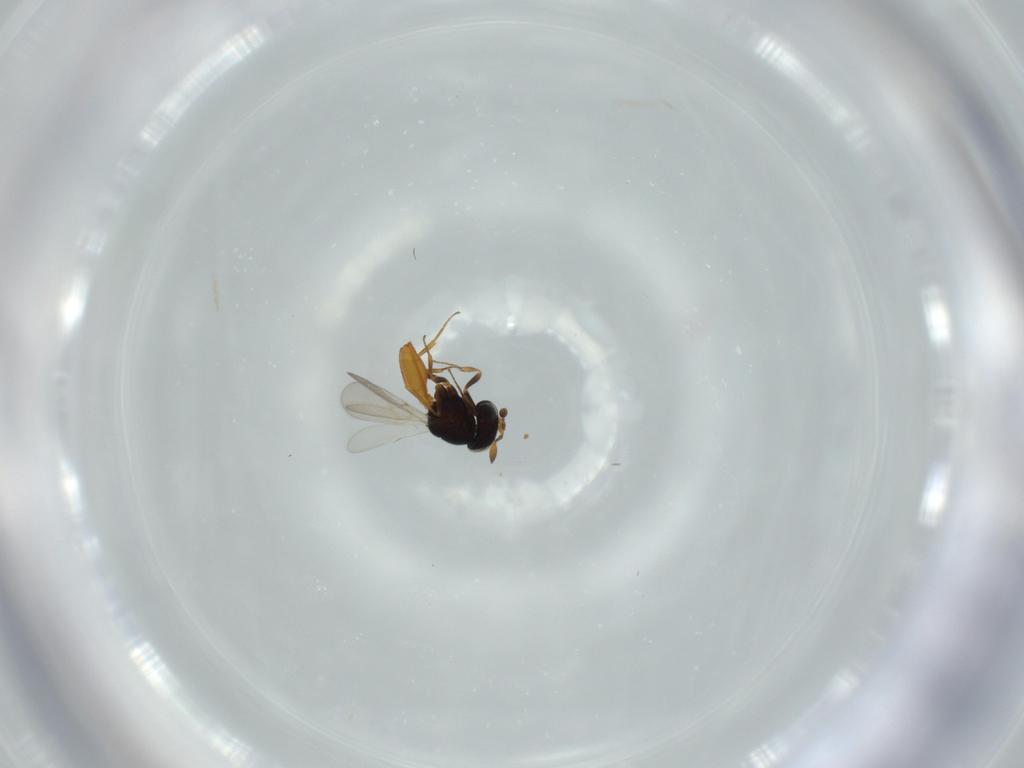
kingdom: Animalia
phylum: Arthropoda
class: Insecta
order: Hymenoptera
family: Scelionidae
